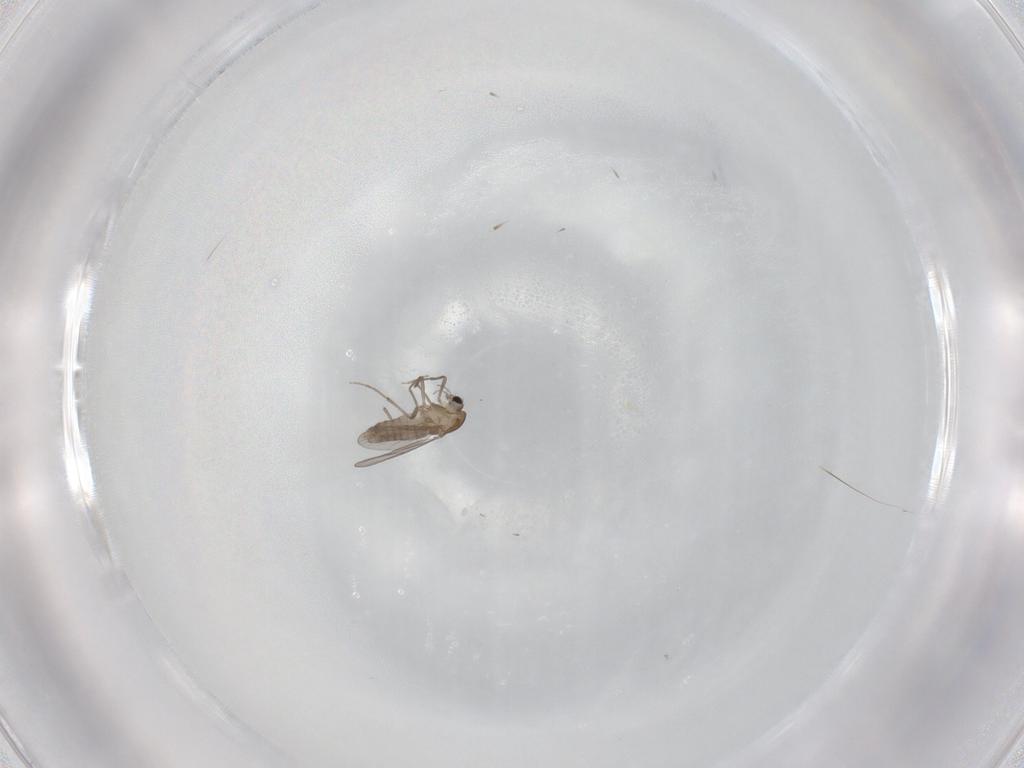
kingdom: Animalia
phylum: Arthropoda
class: Insecta
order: Diptera
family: Chironomidae
